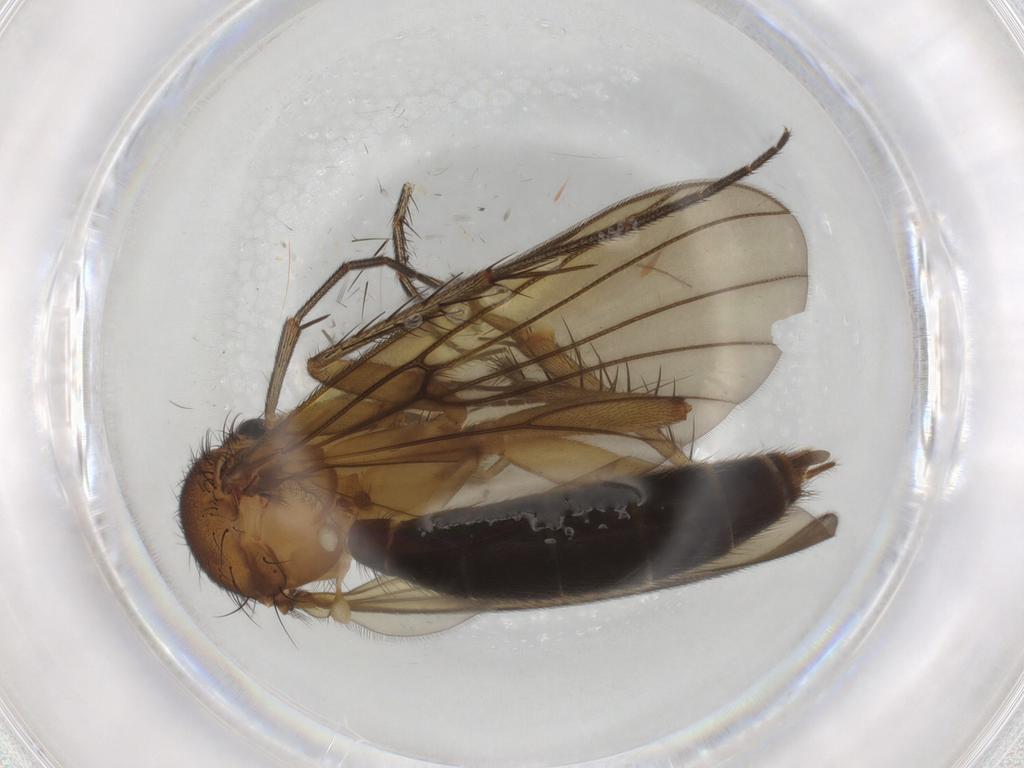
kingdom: Animalia
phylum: Arthropoda
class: Insecta
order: Diptera
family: Mycetophilidae
